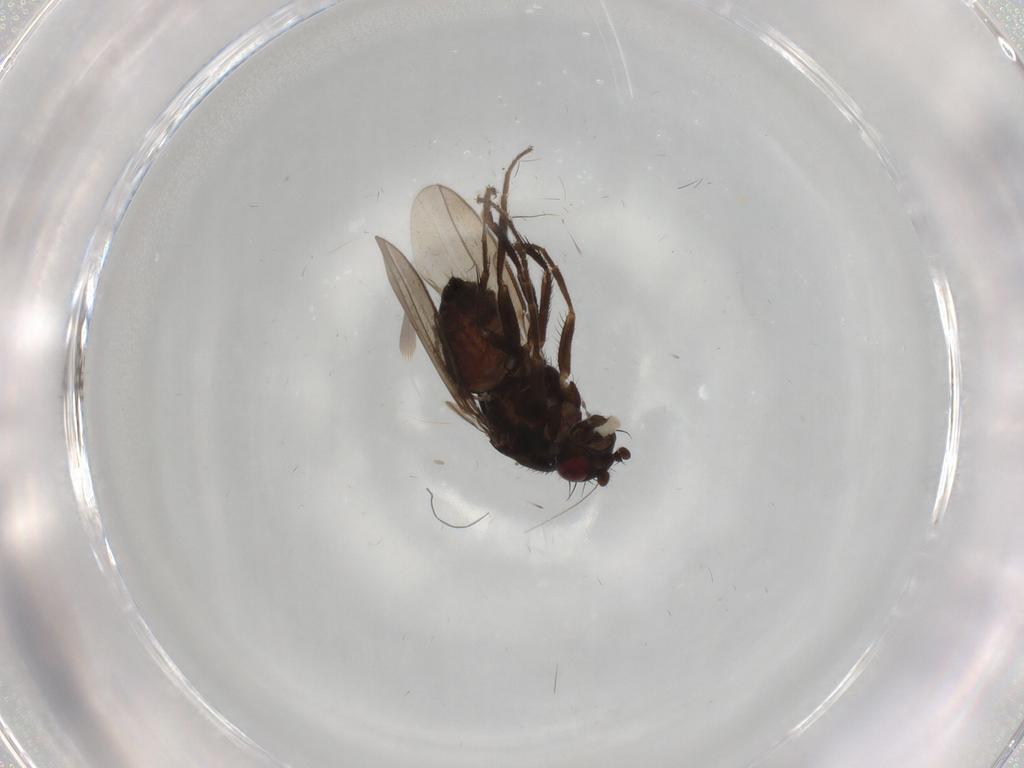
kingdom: Animalia
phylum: Arthropoda
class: Insecta
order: Diptera
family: Sphaeroceridae
